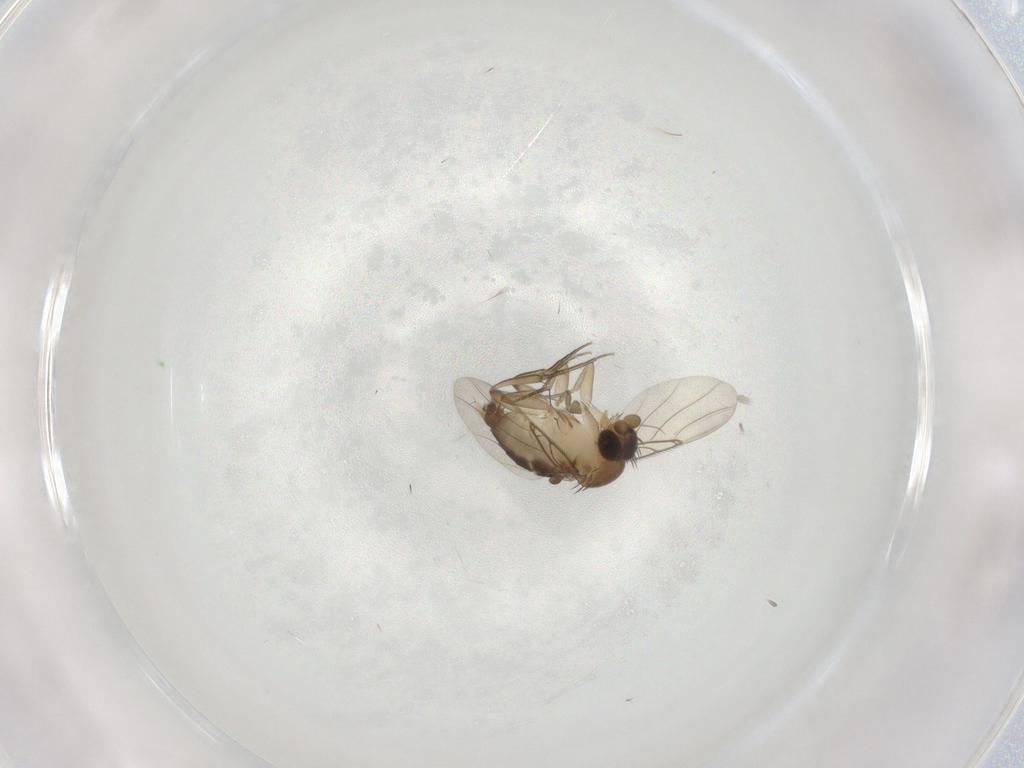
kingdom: Animalia
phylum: Arthropoda
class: Insecta
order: Diptera
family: Phoridae
